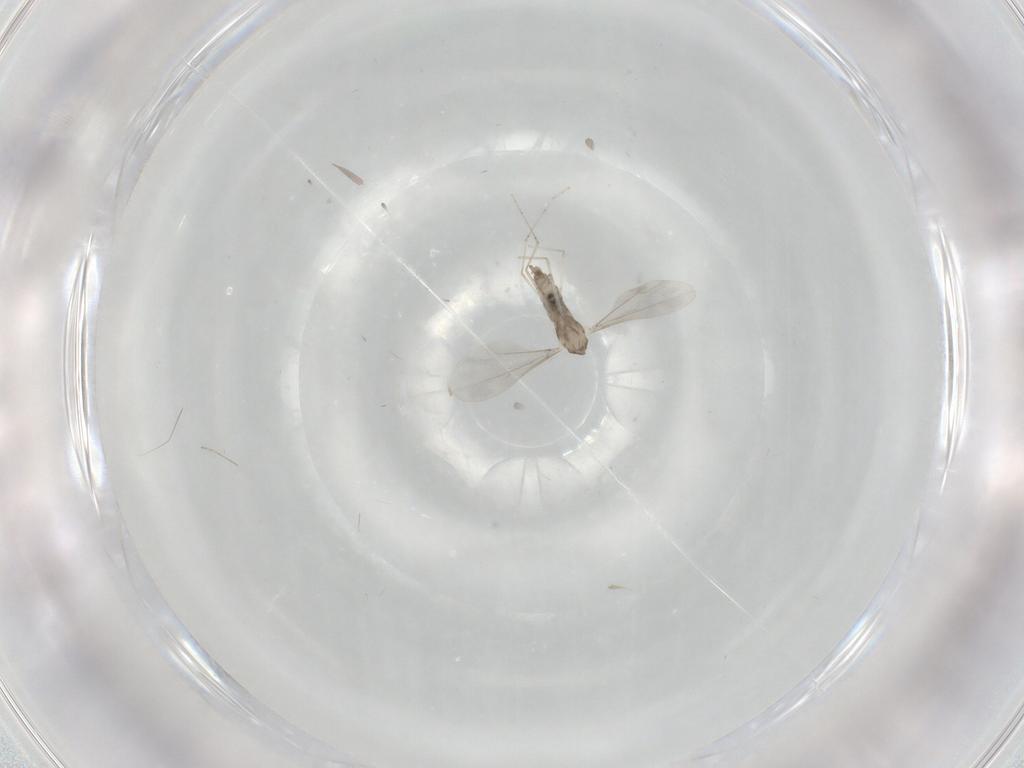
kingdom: Animalia
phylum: Arthropoda
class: Insecta
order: Diptera
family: Cecidomyiidae
